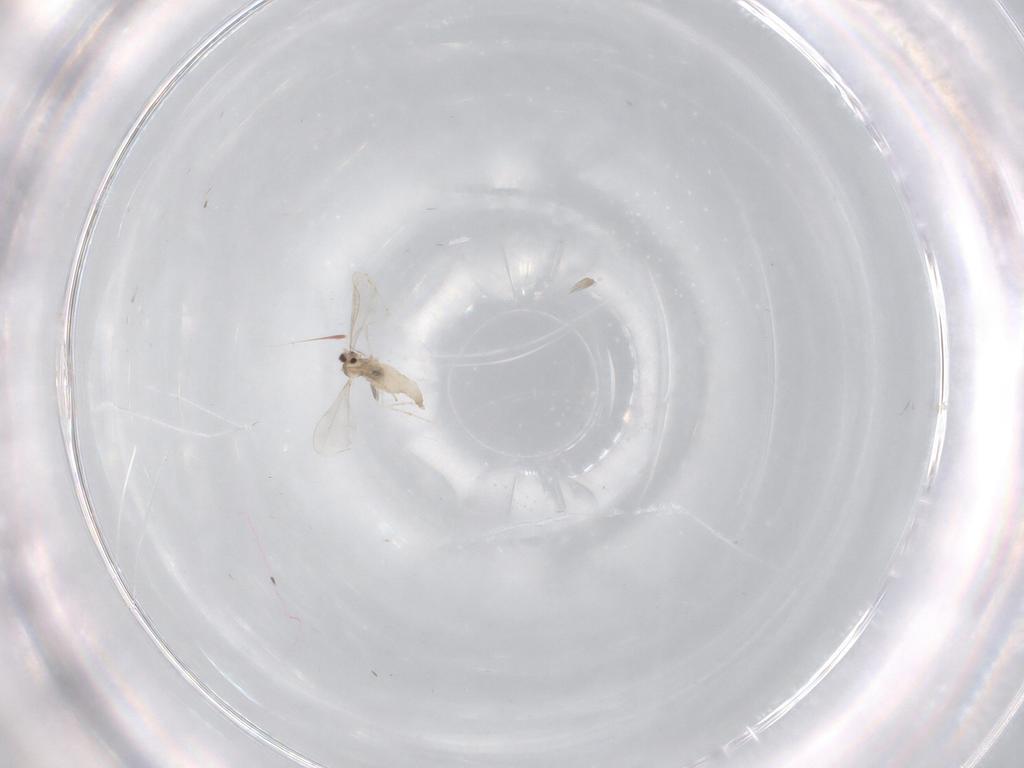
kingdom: Animalia
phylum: Arthropoda
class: Insecta
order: Diptera
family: Cecidomyiidae
